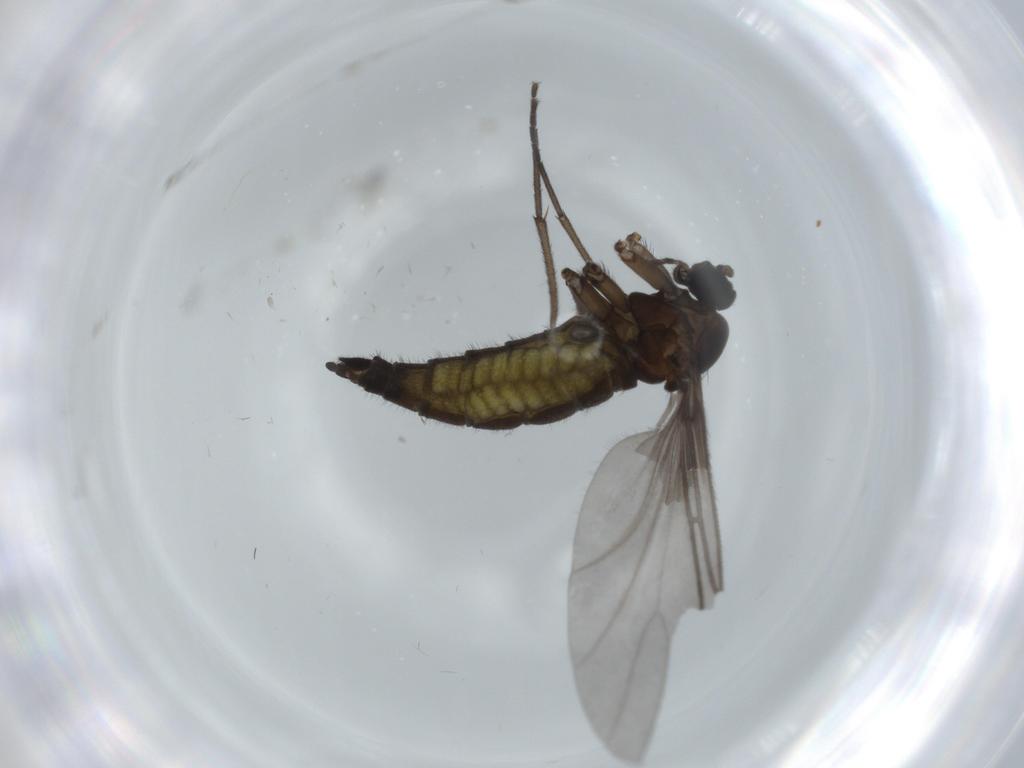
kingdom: Animalia
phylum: Arthropoda
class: Insecta
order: Diptera
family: Sciaridae
